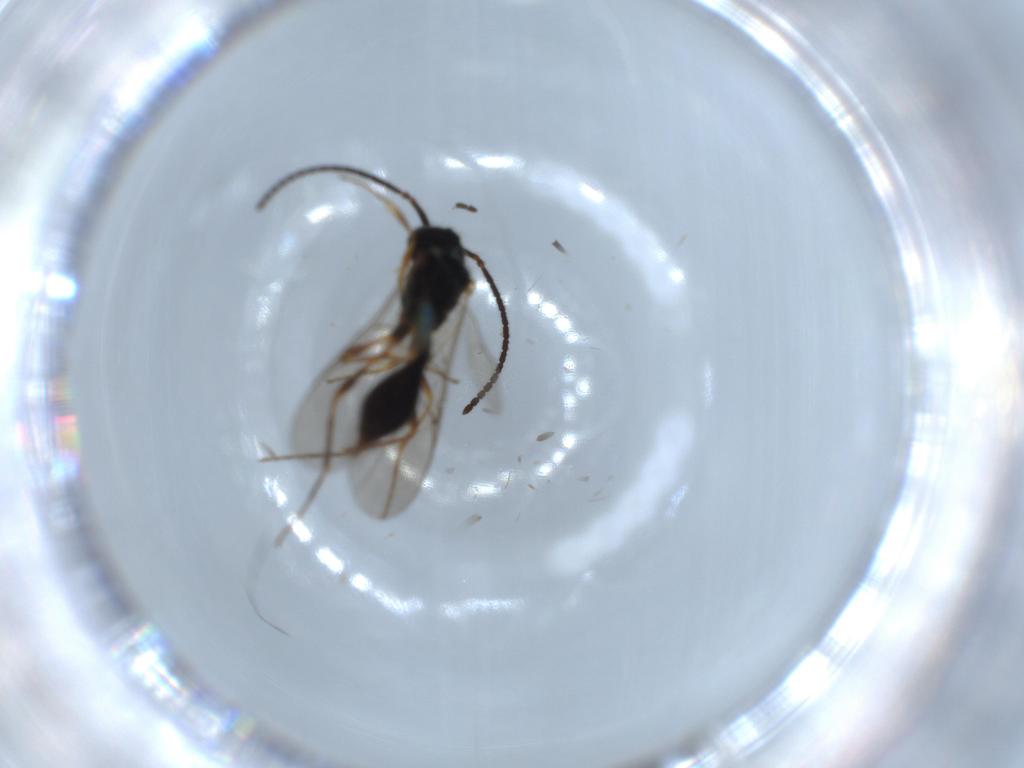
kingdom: Animalia
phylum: Arthropoda
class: Insecta
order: Hymenoptera
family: Diapriidae
